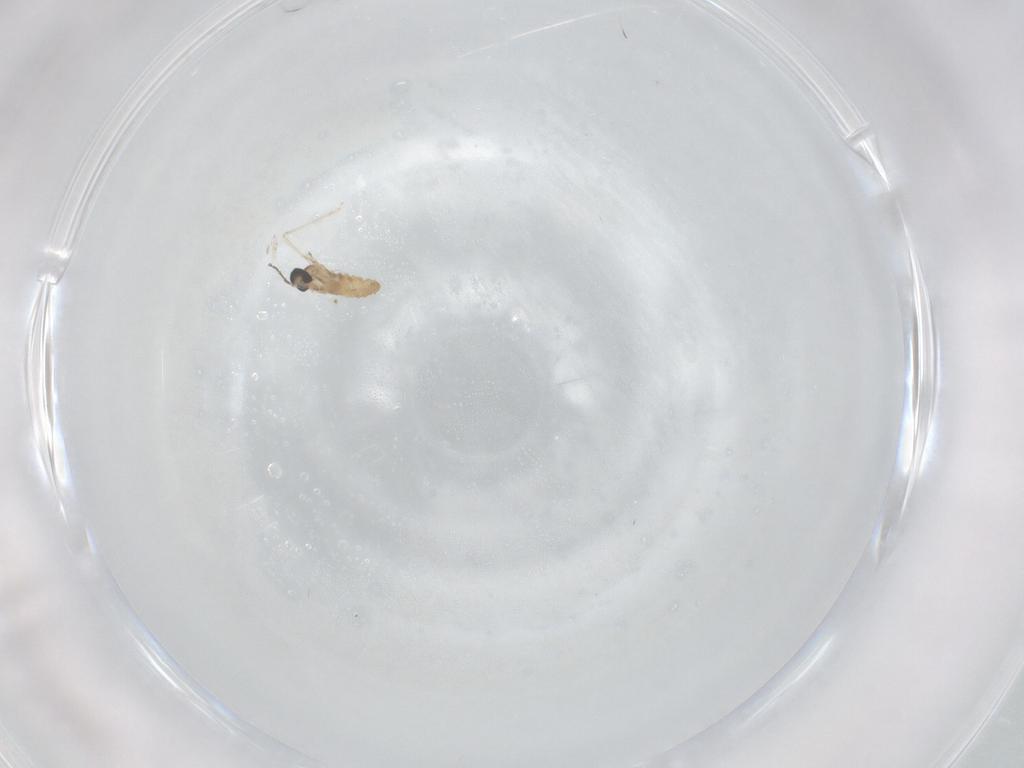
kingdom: Animalia
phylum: Arthropoda
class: Insecta
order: Diptera
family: Cecidomyiidae
